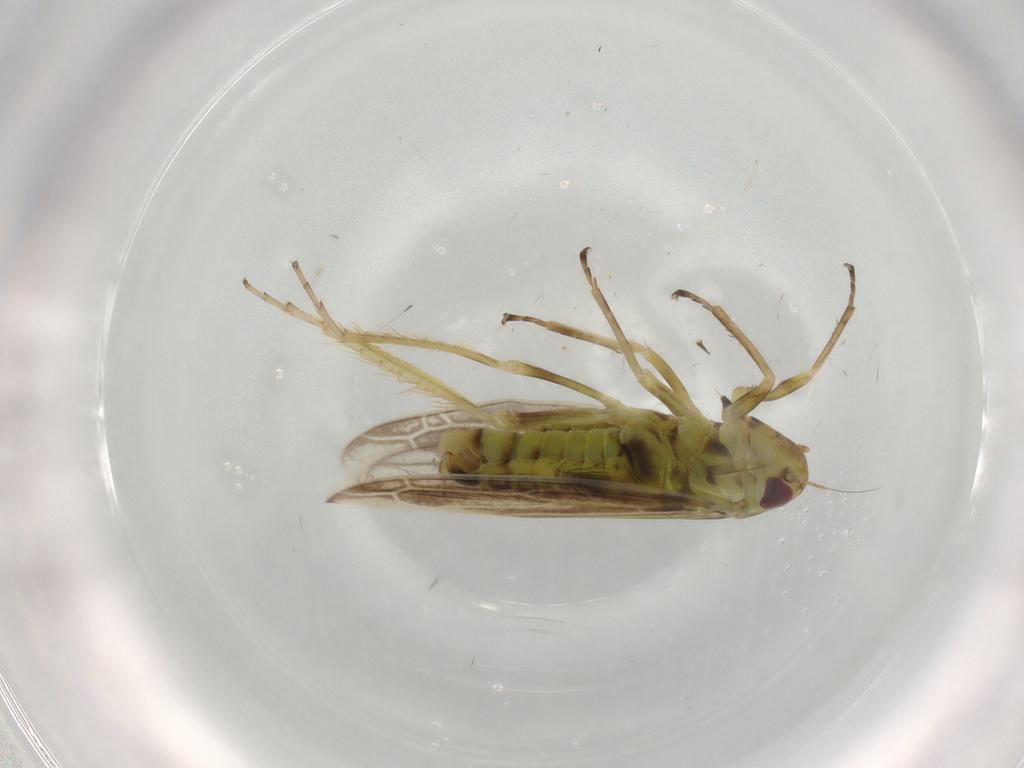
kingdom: Animalia
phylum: Arthropoda
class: Insecta
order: Hemiptera
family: Cicadellidae
